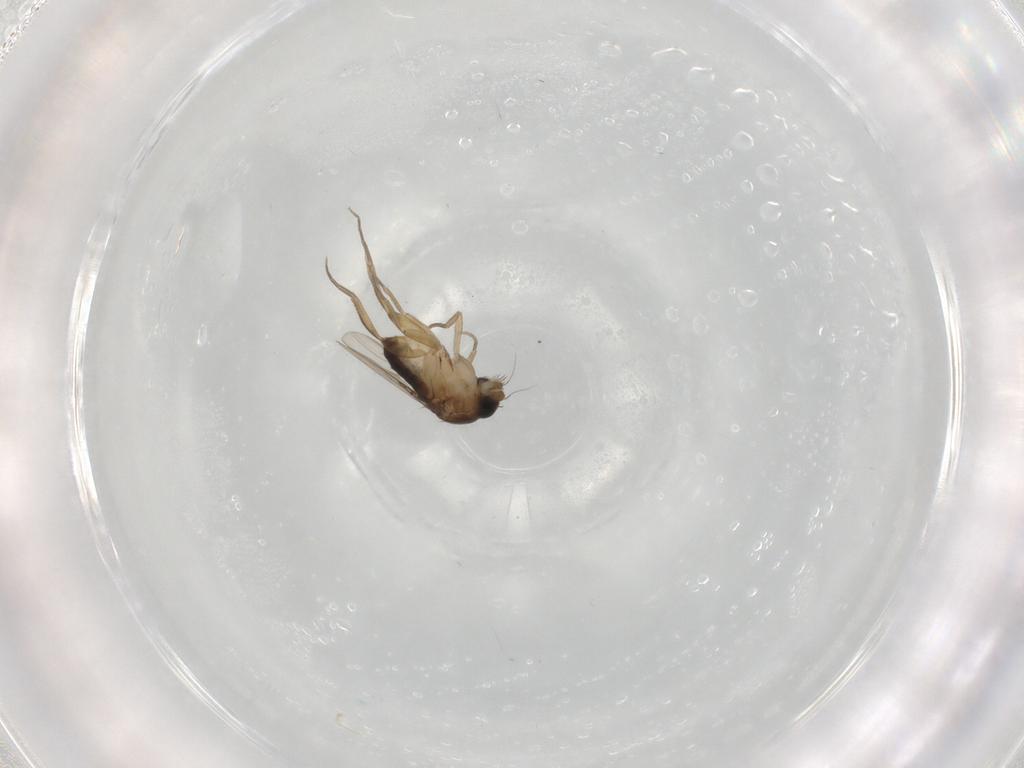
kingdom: Animalia
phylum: Arthropoda
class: Insecta
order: Diptera
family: Phoridae
